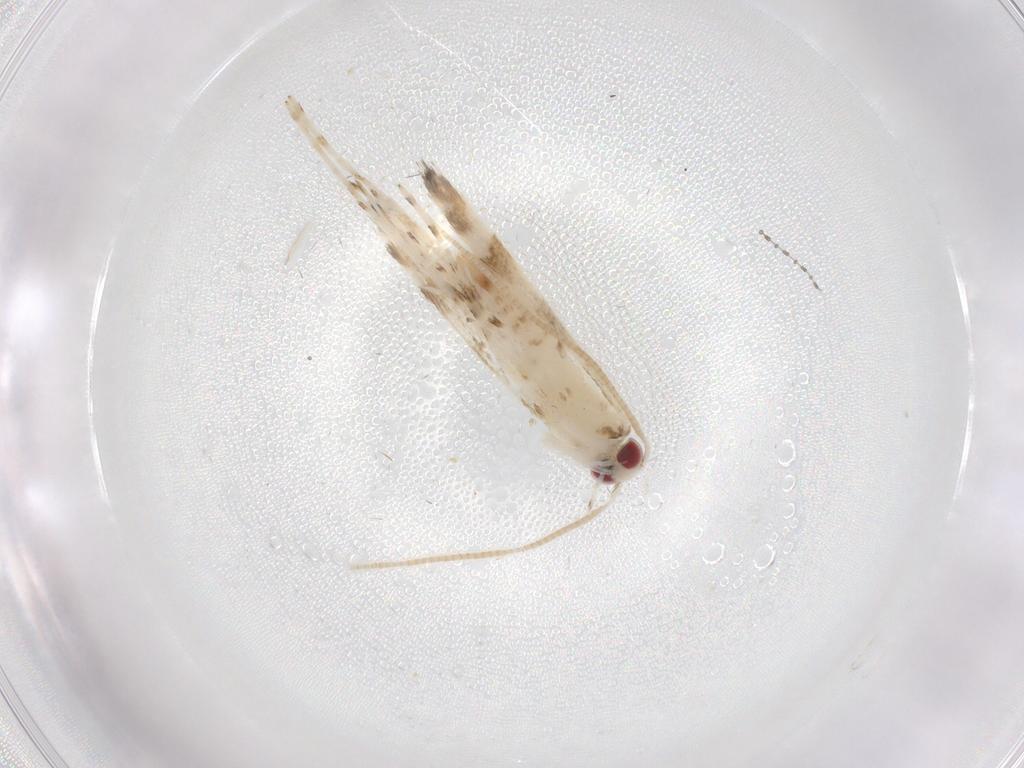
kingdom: Animalia
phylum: Arthropoda
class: Insecta
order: Lepidoptera
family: Gracillariidae
